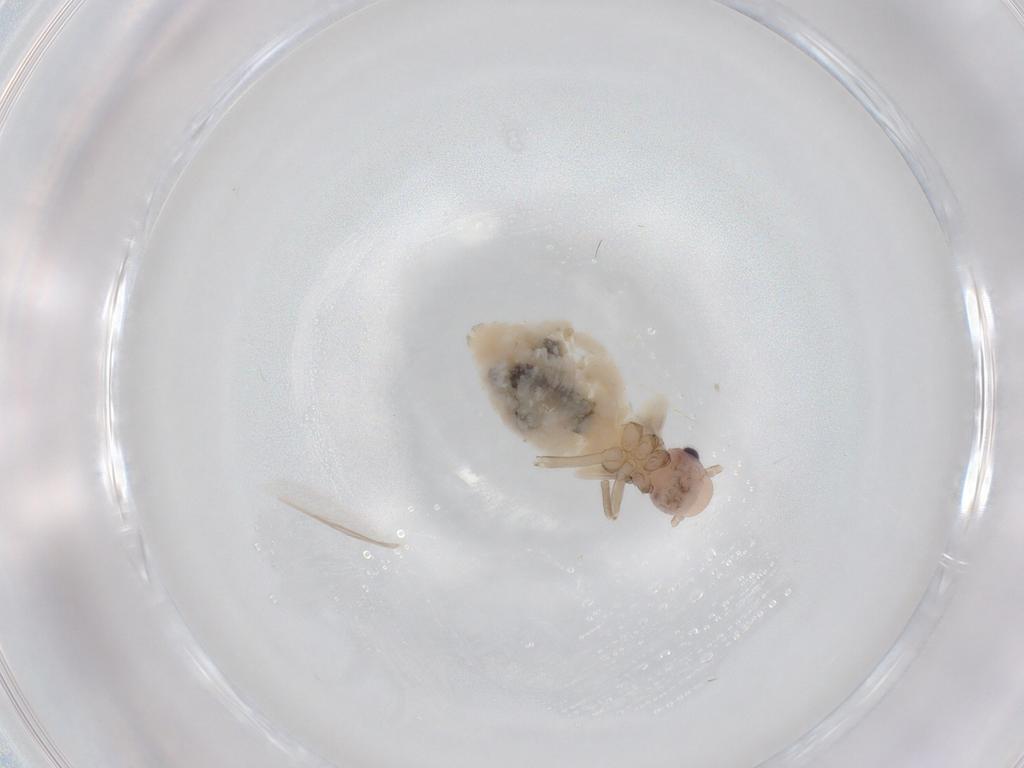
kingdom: Animalia
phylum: Arthropoda
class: Insecta
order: Psocodea
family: Stenopsocidae
